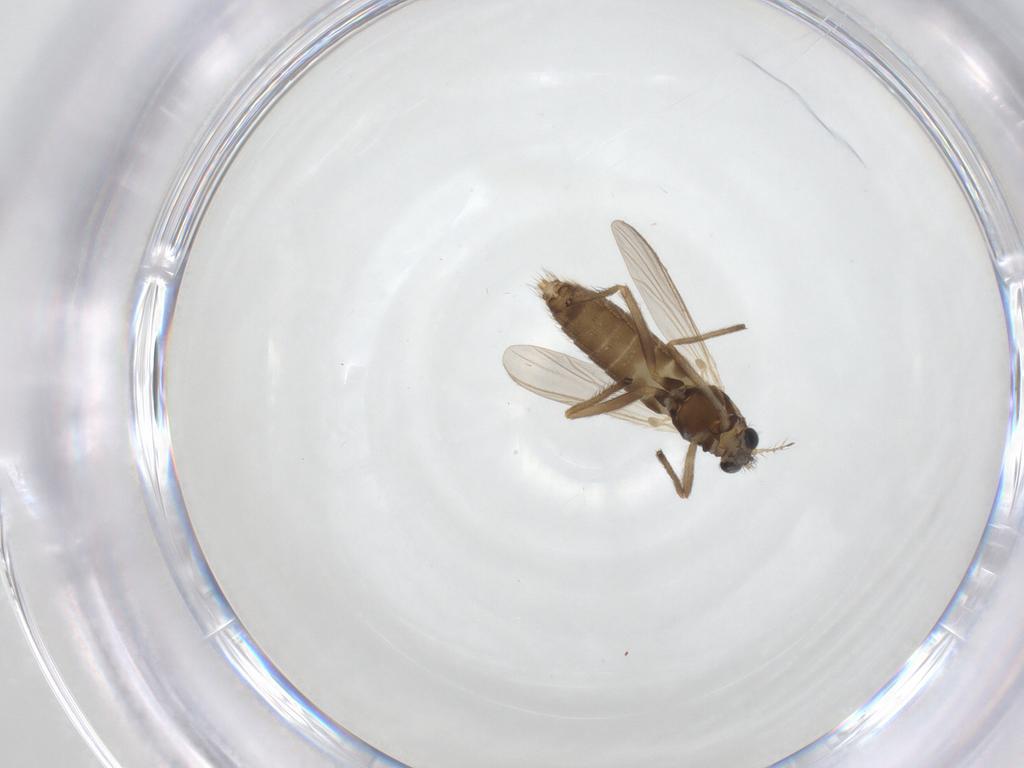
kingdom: Animalia
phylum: Arthropoda
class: Insecta
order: Diptera
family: Chironomidae
